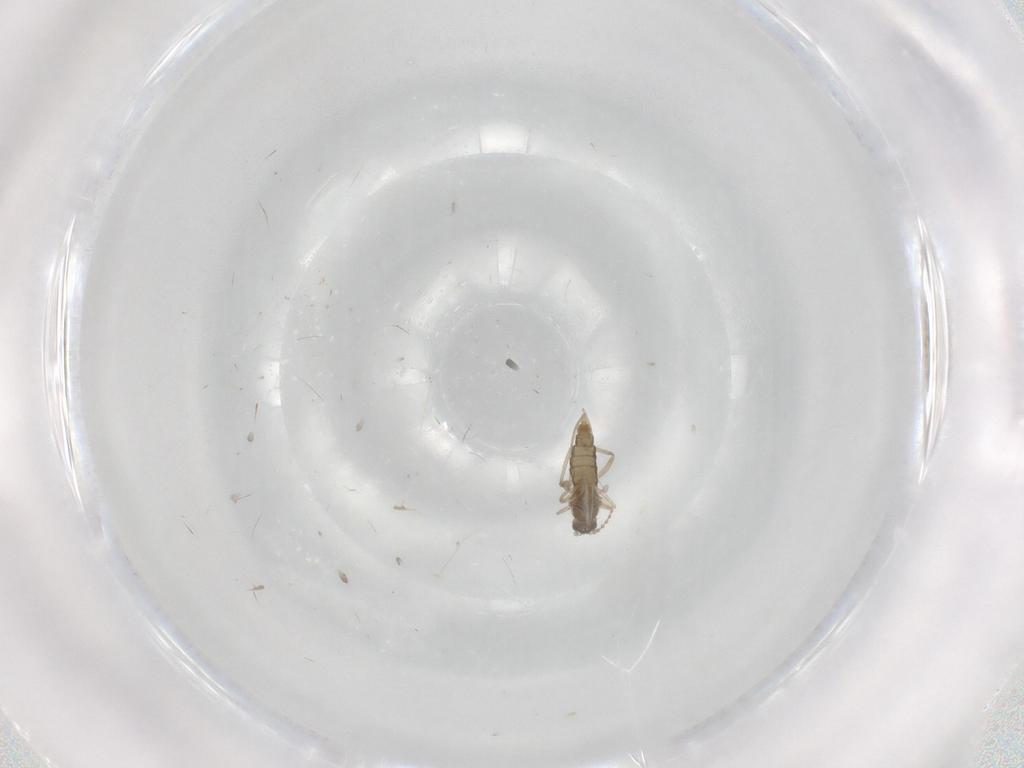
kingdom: Animalia
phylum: Arthropoda
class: Insecta
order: Diptera
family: Cecidomyiidae
